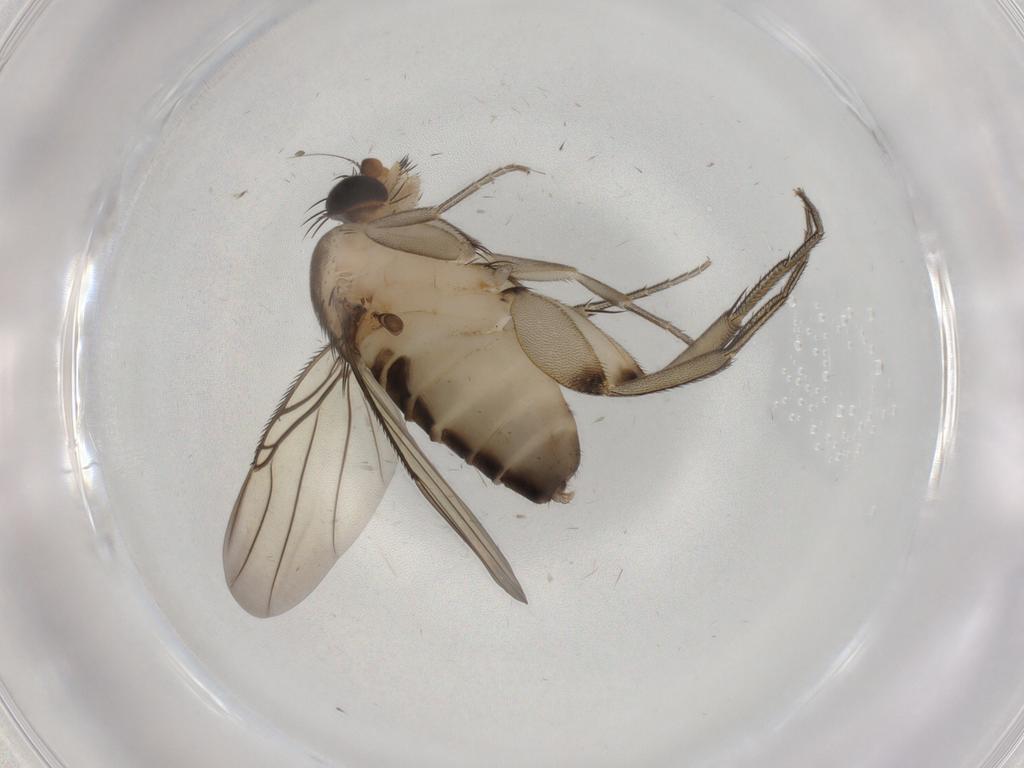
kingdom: Animalia
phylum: Arthropoda
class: Insecta
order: Diptera
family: Phoridae
